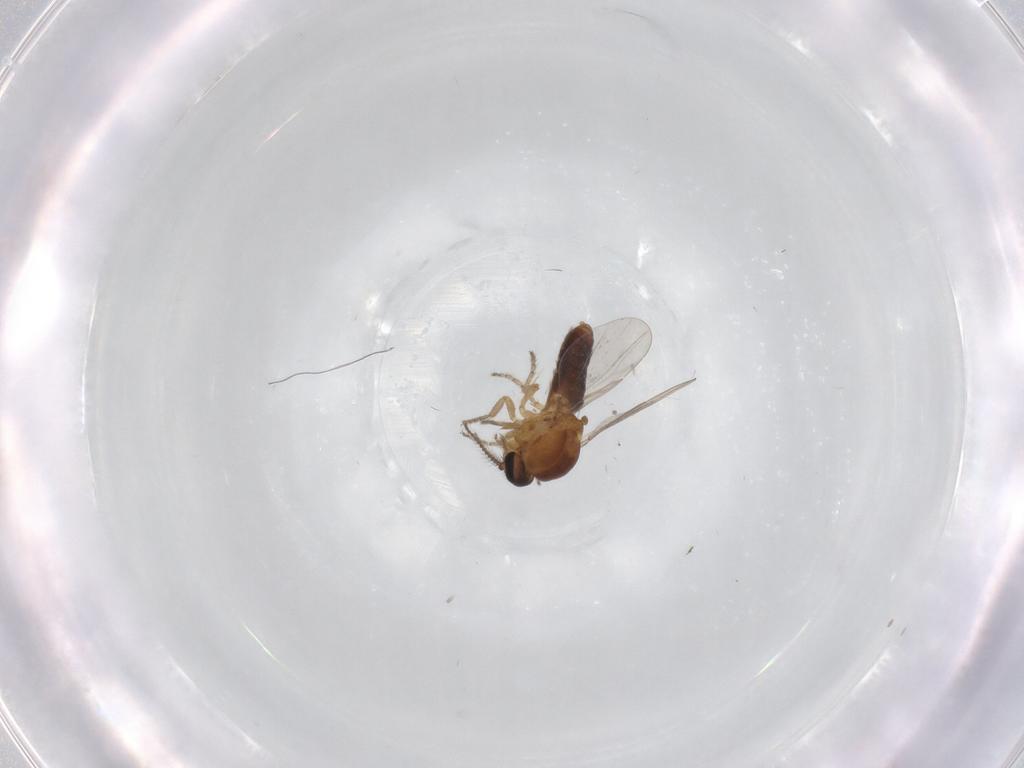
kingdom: Animalia
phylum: Arthropoda
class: Insecta
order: Diptera
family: Ceratopogonidae
